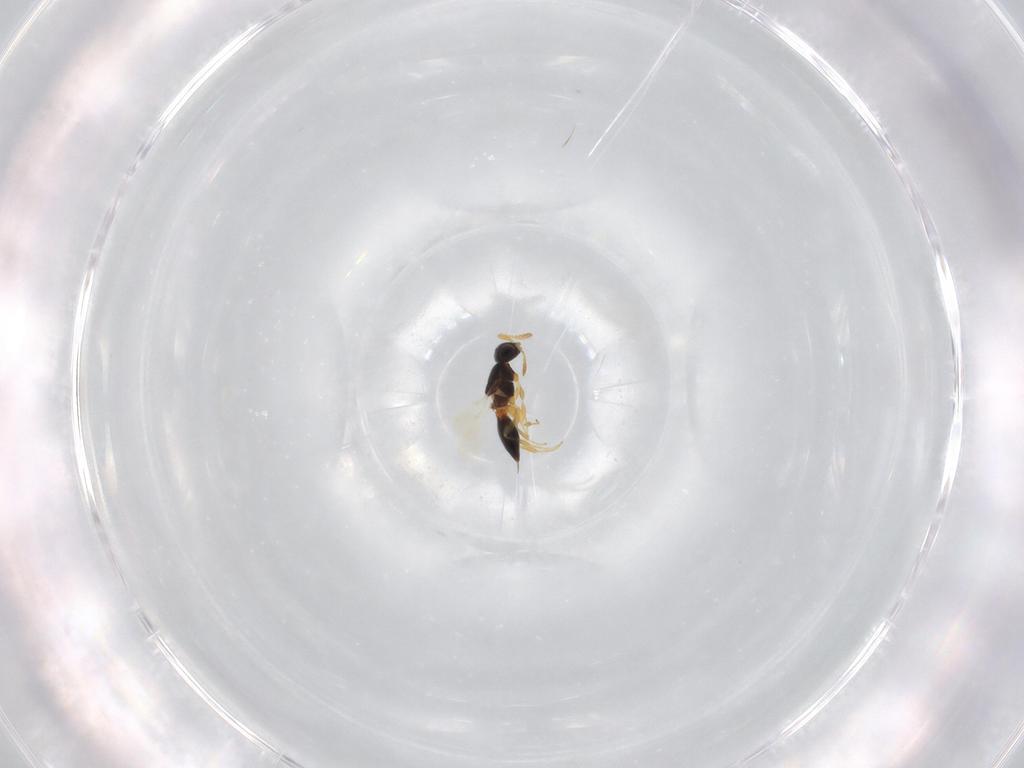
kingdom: Animalia
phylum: Arthropoda
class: Insecta
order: Hymenoptera
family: Platygastridae
